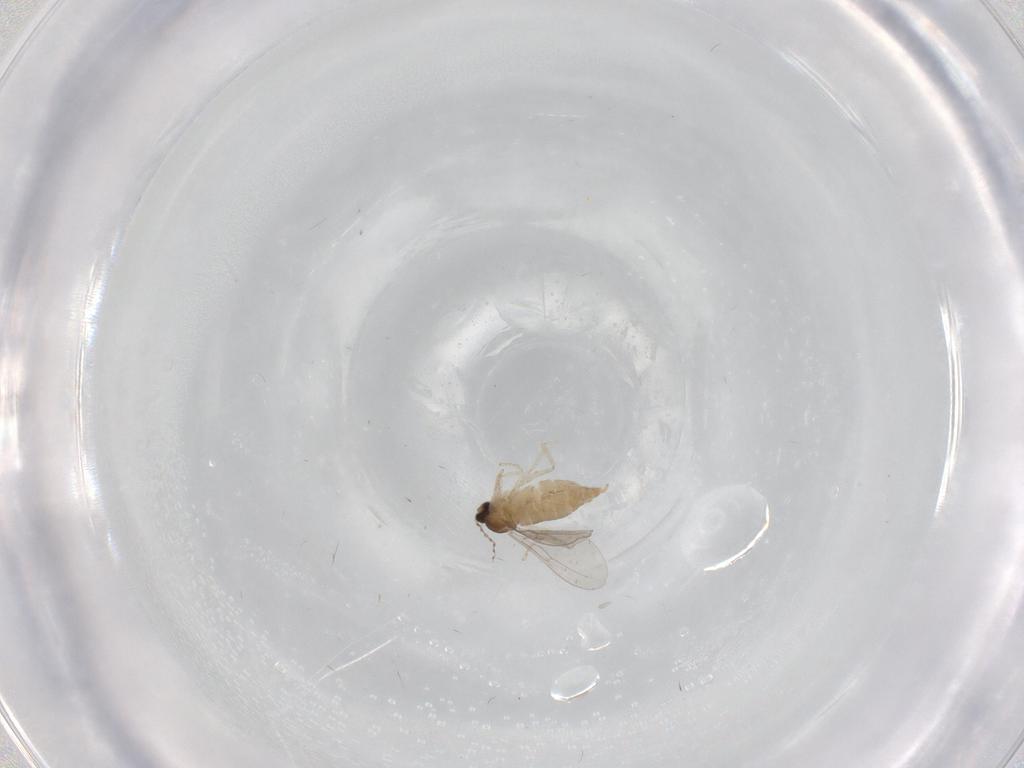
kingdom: Animalia
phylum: Arthropoda
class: Insecta
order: Diptera
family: Cecidomyiidae
